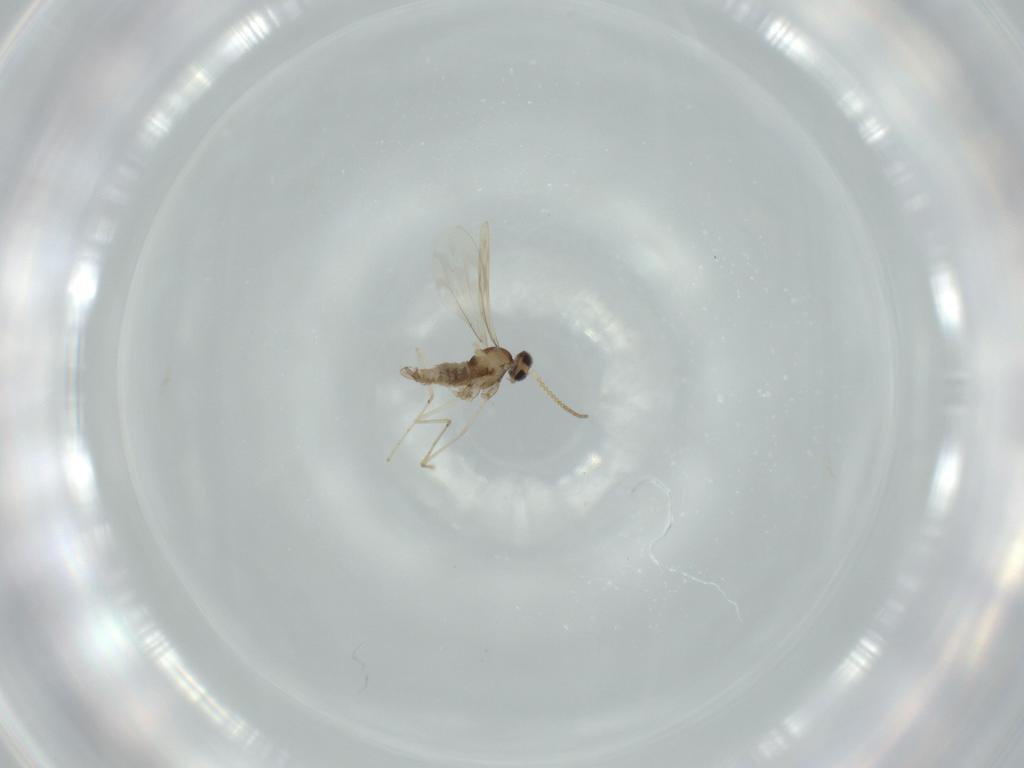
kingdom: Animalia
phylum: Arthropoda
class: Insecta
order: Diptera
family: Cecidomyiidae
